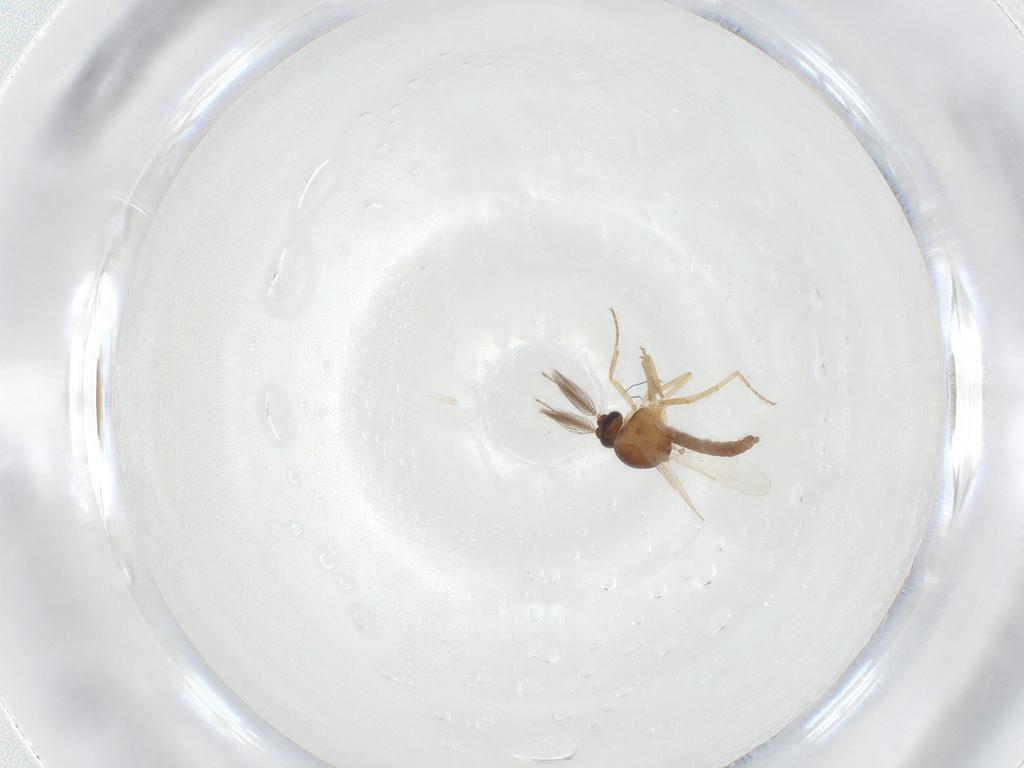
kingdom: Animalia
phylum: Arthropoda
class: Insecta
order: Diptera
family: Ceratopogonidae
